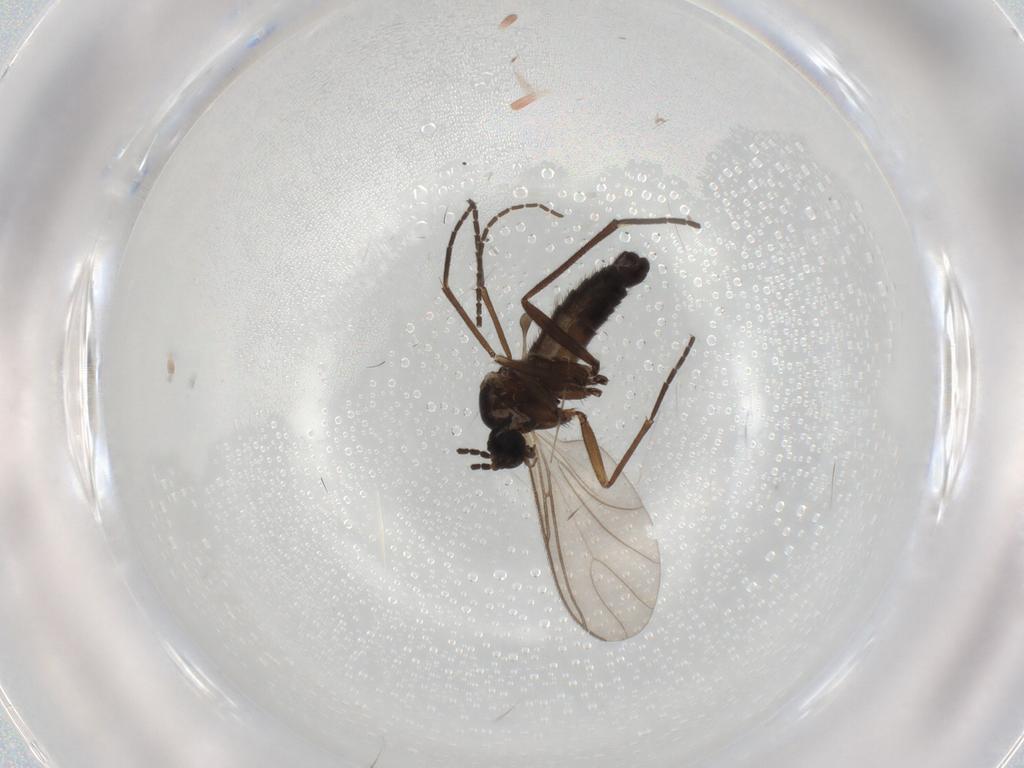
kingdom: Animalia
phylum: Arthropoda
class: Insecta
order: Diptera
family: Sciaridae
